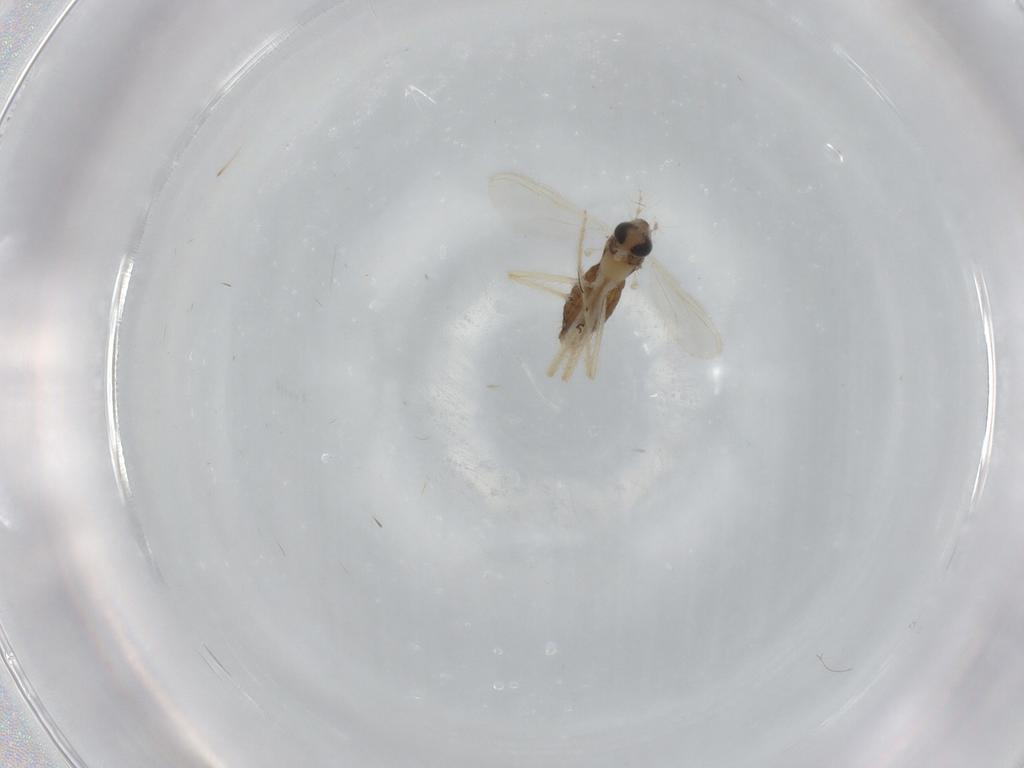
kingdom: Animalia
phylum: Arthropoda
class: Insecta
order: Diptera
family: Chironomidae
